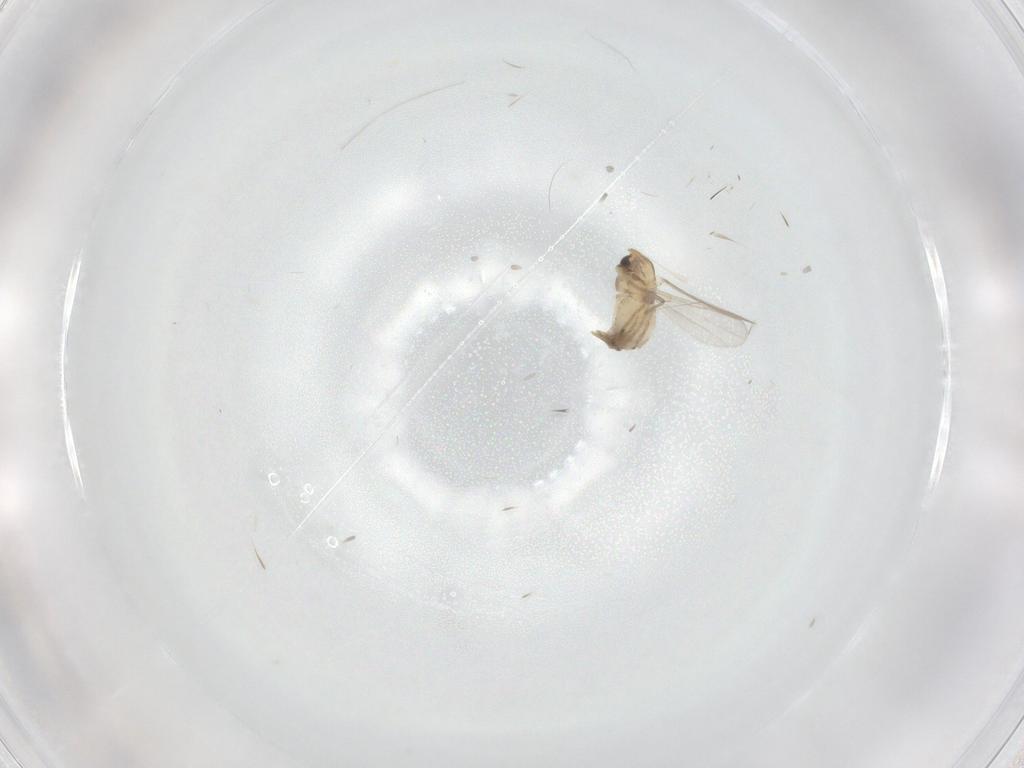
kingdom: Animalia
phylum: Arthropoda
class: Insecta
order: Diptera
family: Chironomidae
